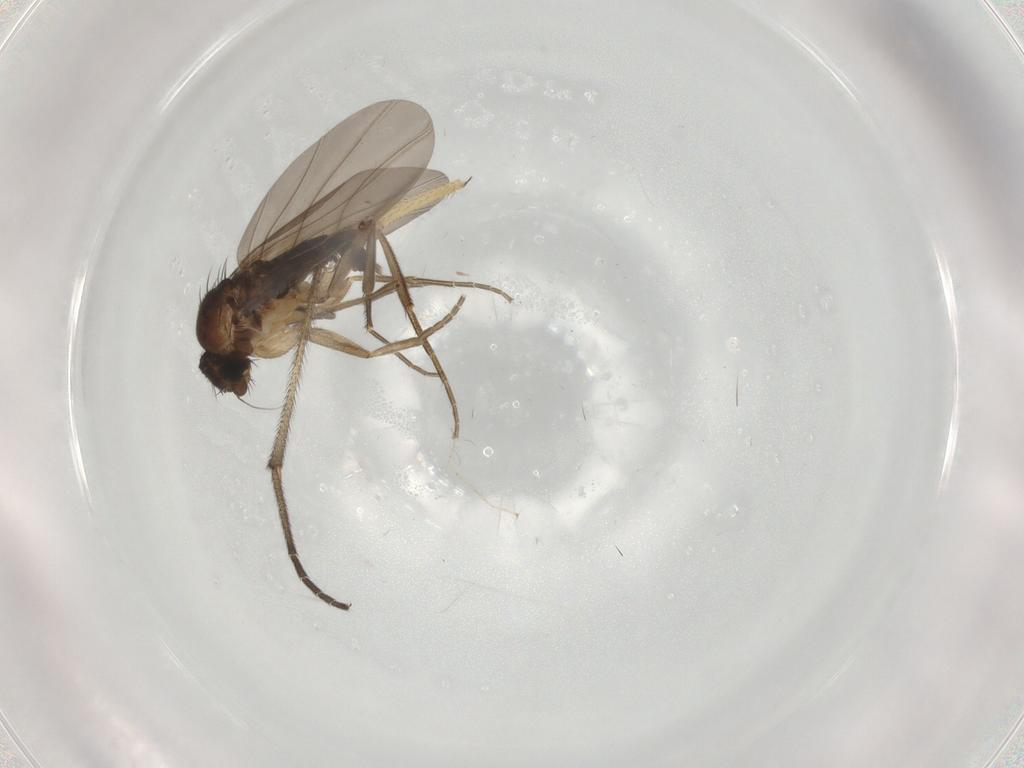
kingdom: Animalia
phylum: Arthropoda
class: Insecta
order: Diptera
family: Phoridae
